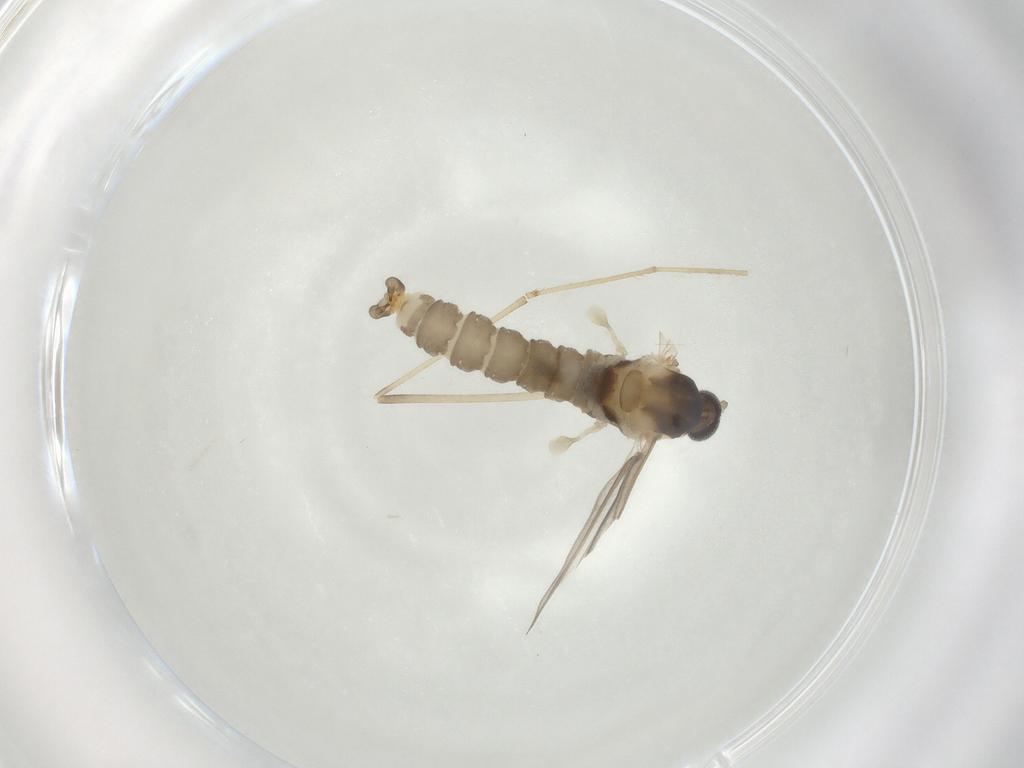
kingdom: Animalia
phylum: Arthropoda
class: Insecta
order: Diptera
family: Cecidomyiidae
